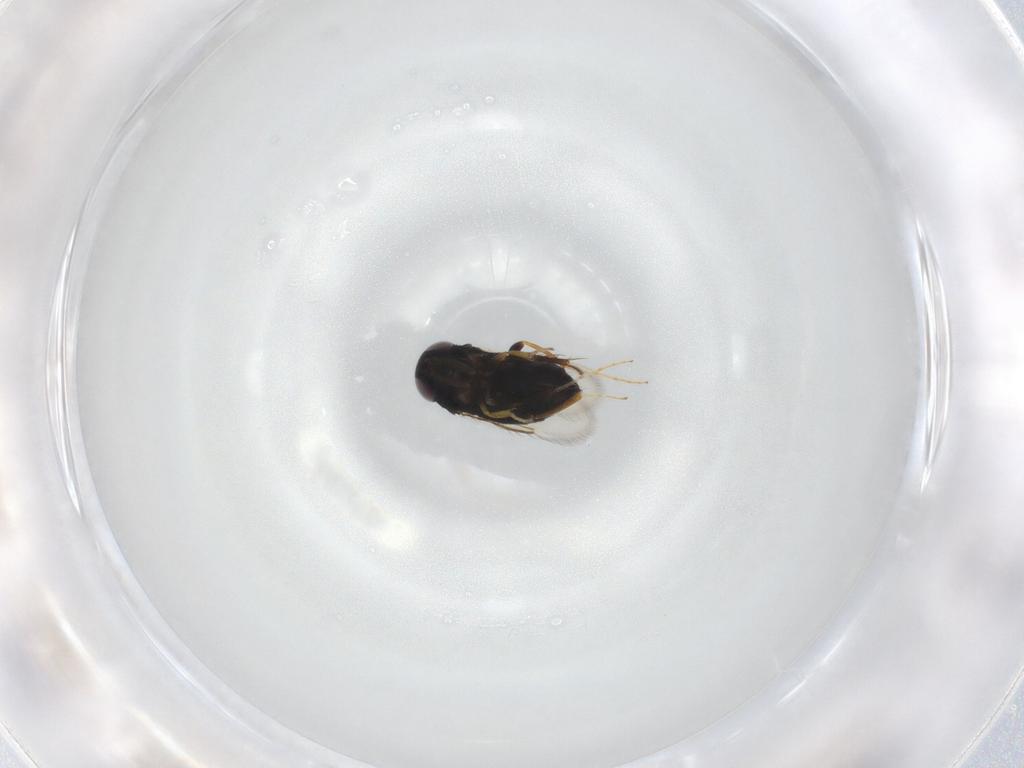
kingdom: Animalia
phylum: Arthropoda
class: Insecta
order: Hymenoptera
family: Signiphoridae
